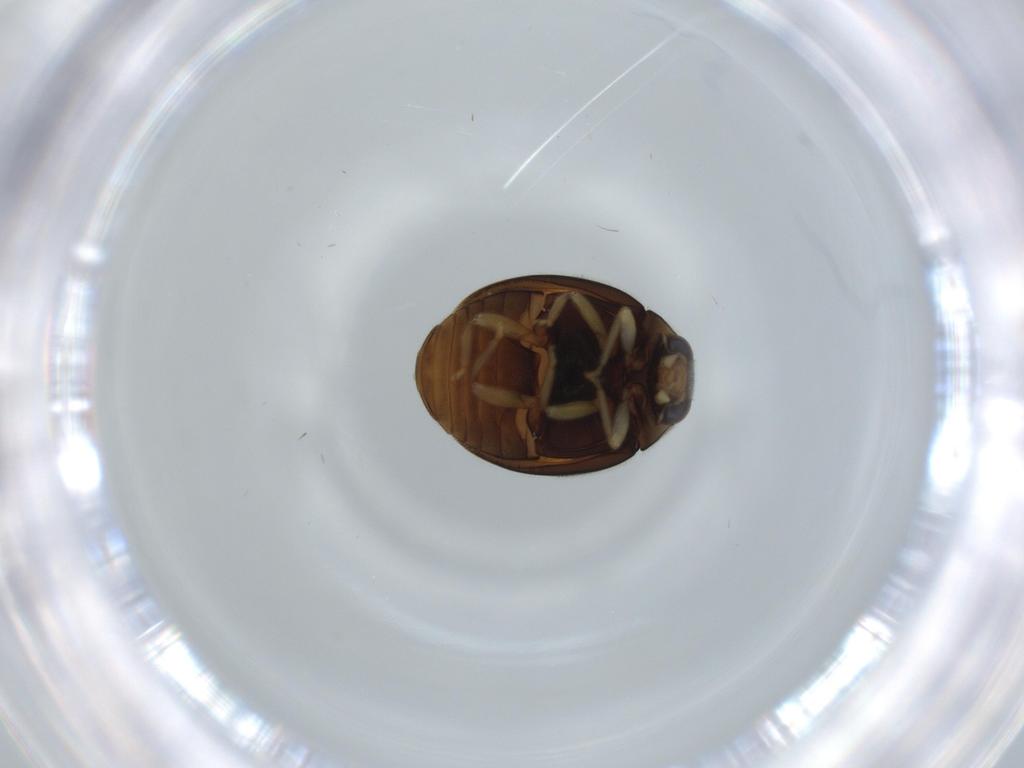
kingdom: Animalia
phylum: Arthropoda
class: Insecta
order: Coleoptera
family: Coccinellidae
